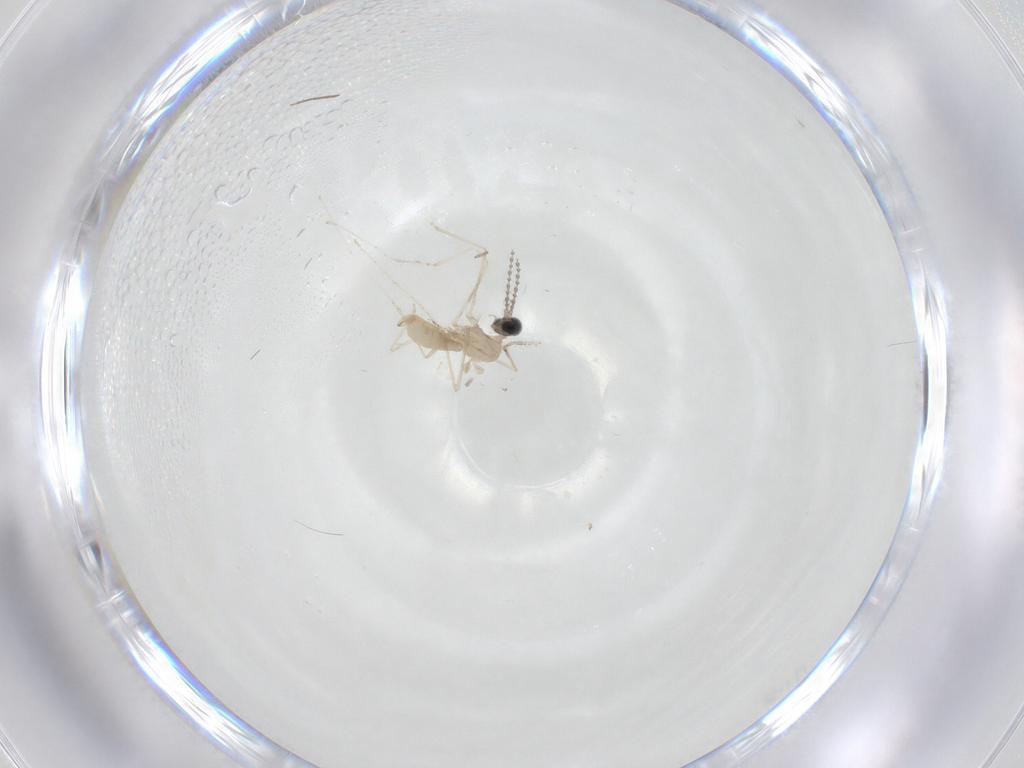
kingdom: Animalia
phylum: Arthropoda
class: Insecta
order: Diptera
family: Cecidomyiidae
